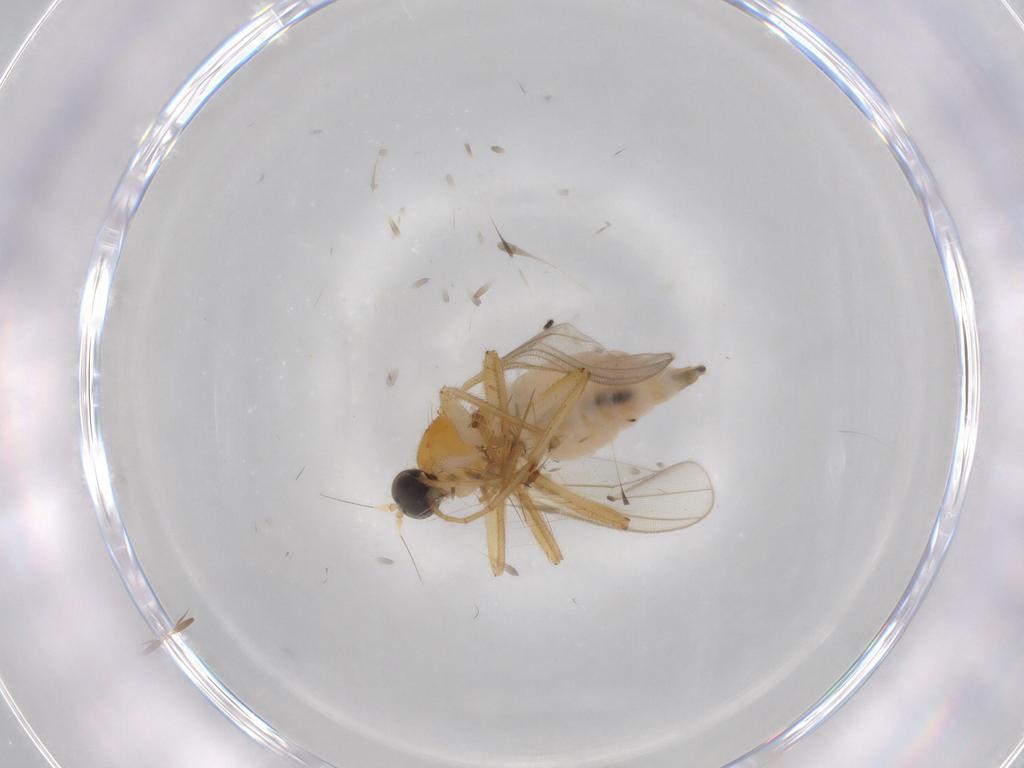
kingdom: Animalia
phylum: Arthropoda
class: Insecta
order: Diptera
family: Hybotidae
